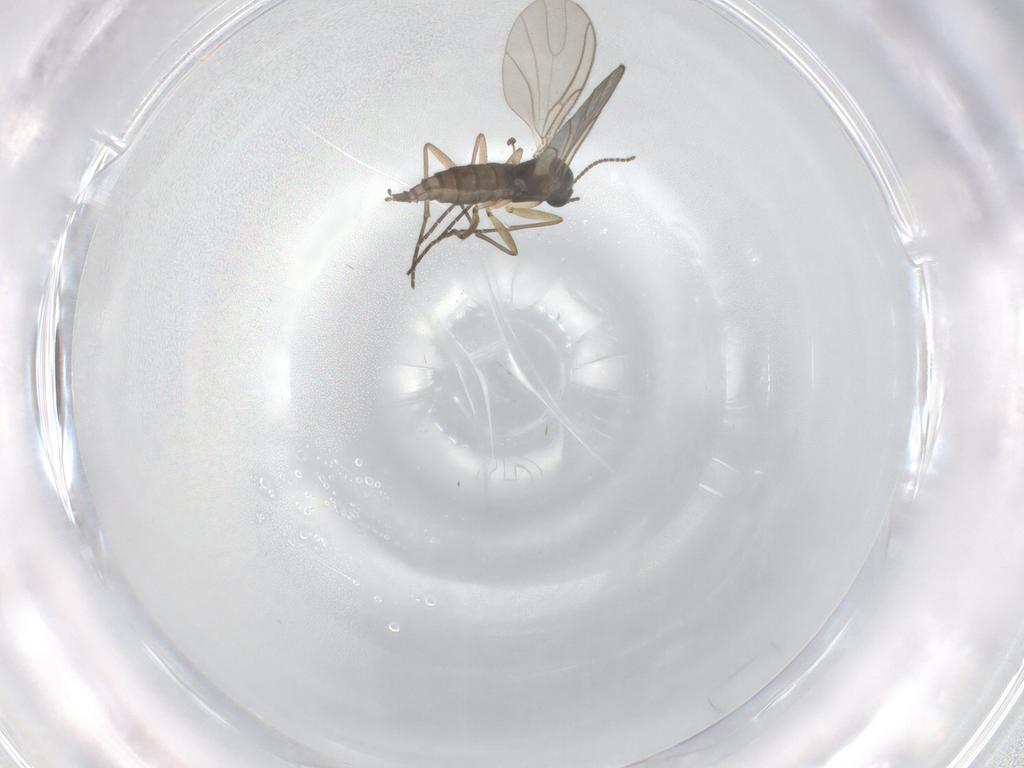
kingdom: Animalia
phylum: Arthropoda
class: Insecta
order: Diptera
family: Sciaridae
